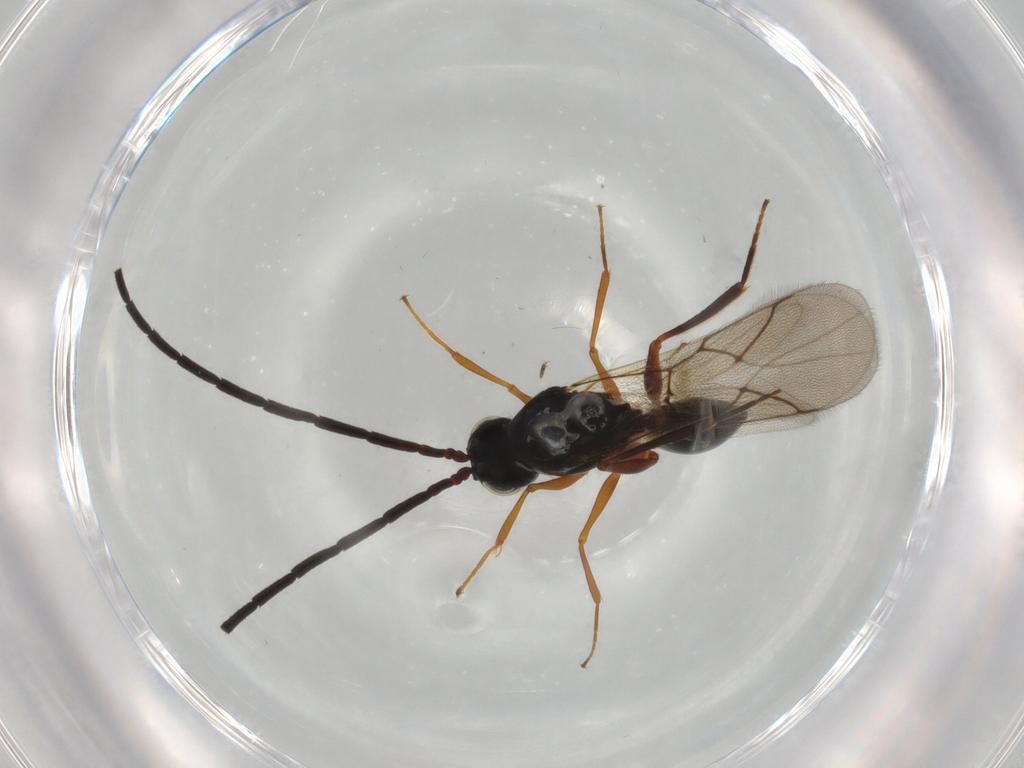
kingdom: Animalia
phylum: Arthropoda
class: Insecta
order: Hymenoptera
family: Figitidae
